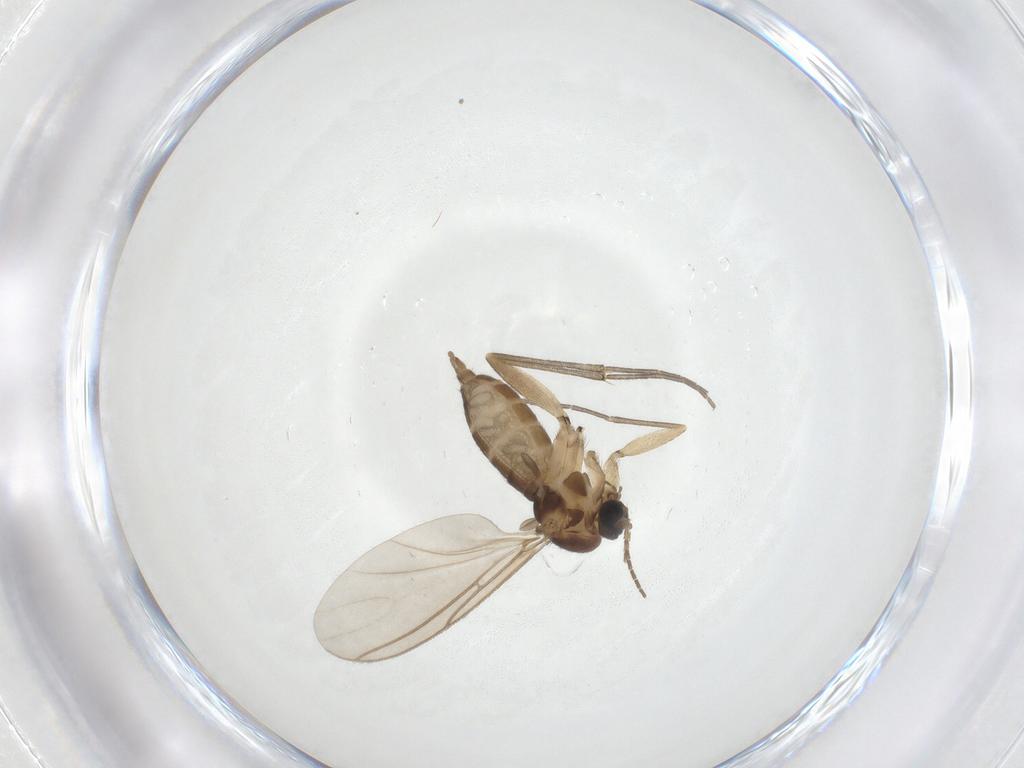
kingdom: Animalia
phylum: Arthropoda
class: Insecta
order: Diptera
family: Sciaridae
